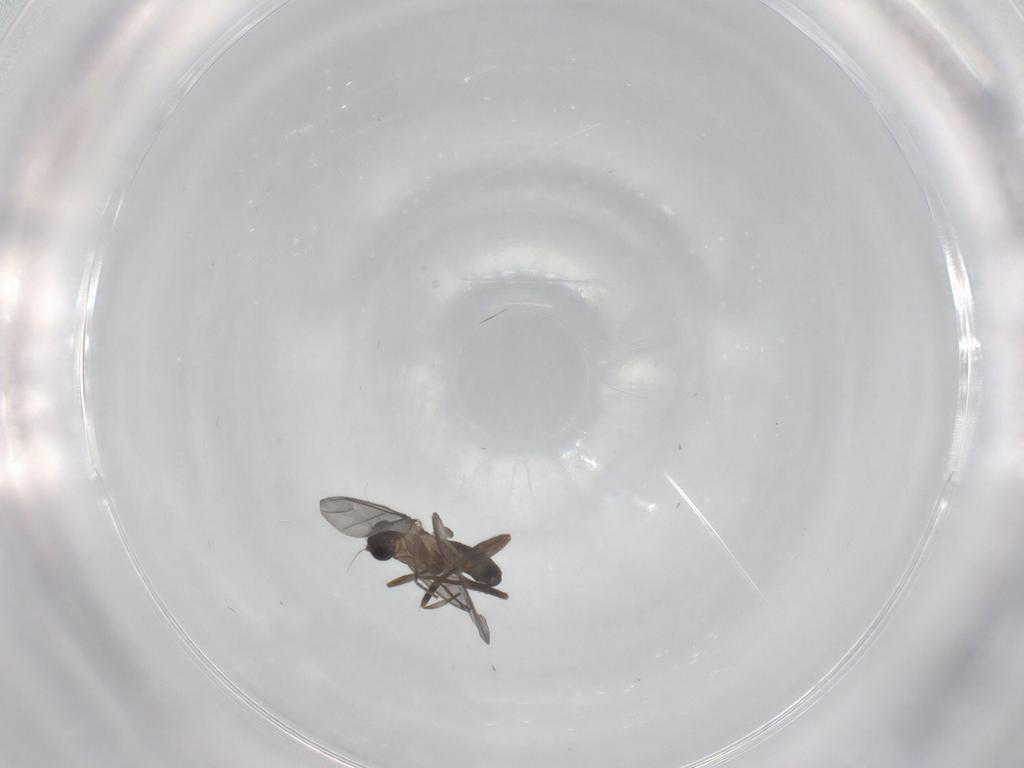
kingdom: Animalia
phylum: Arthropoda
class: Insecta
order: Diptera
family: Phoridae
